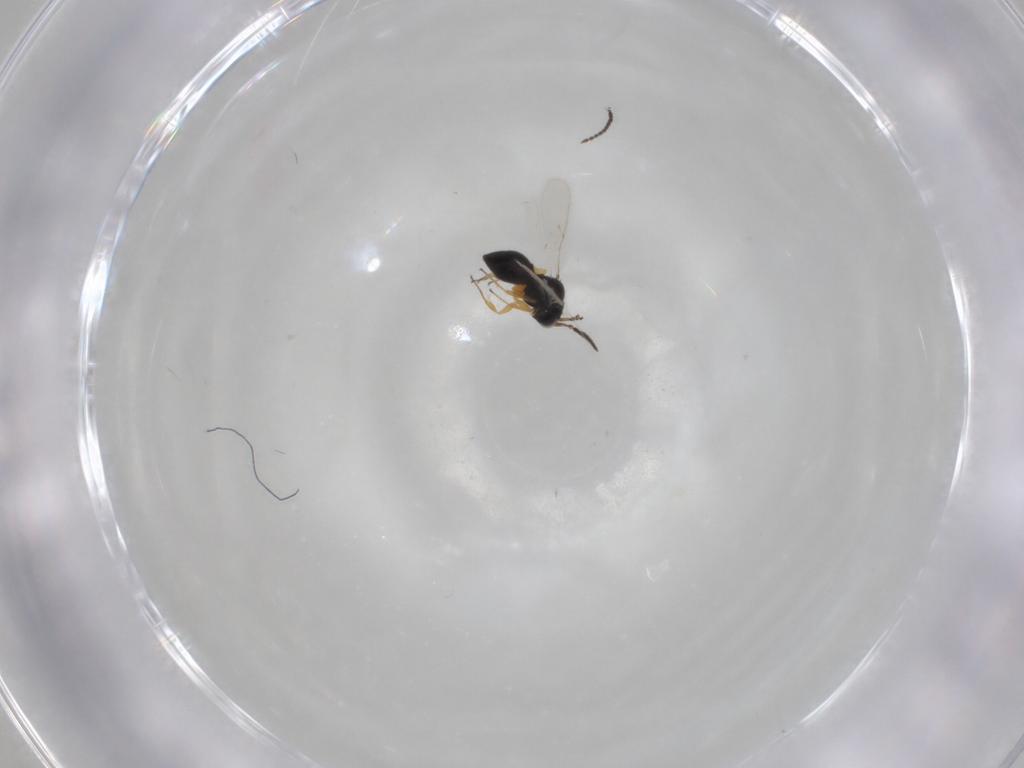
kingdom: Animalia
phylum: Arthropoda
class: Insecta
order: Hymenoptera
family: Scelionidae
